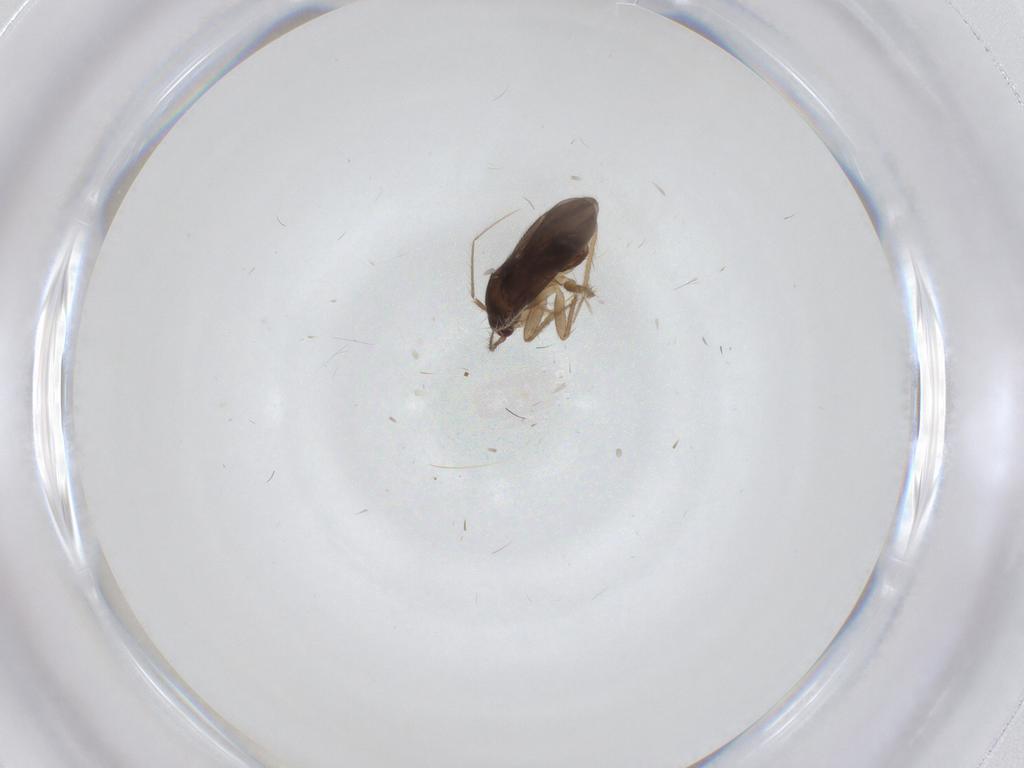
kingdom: Animalia
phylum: Arthropoda
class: Insecta
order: Hemiptera
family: Ceratocombidae
